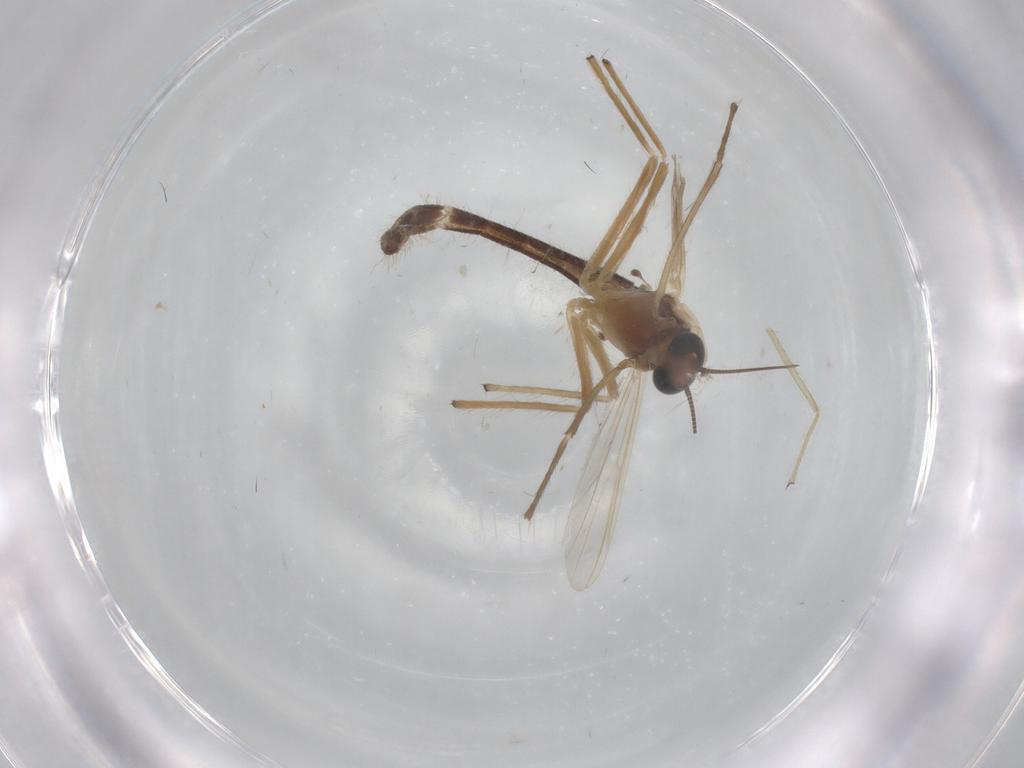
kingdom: Animalia
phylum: Arthropoda
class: Insecta
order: Diptera
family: Chironomidae
